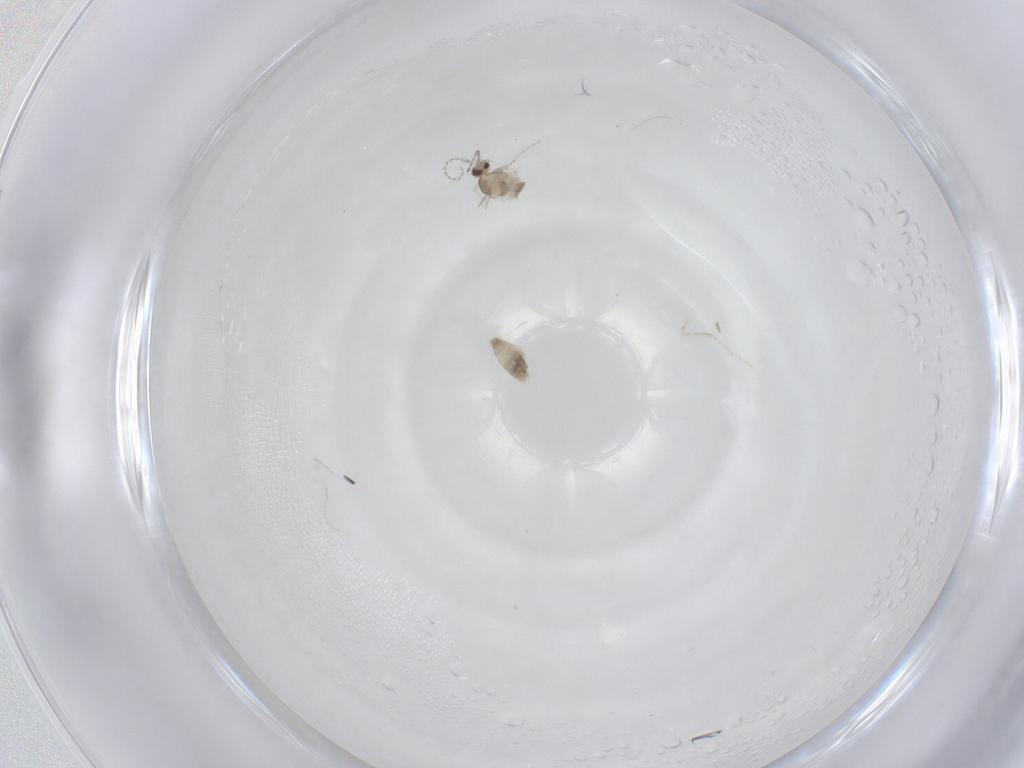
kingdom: Animalia
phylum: Arthropoda
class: Insecta
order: Diptera
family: Cecidomyiidae
